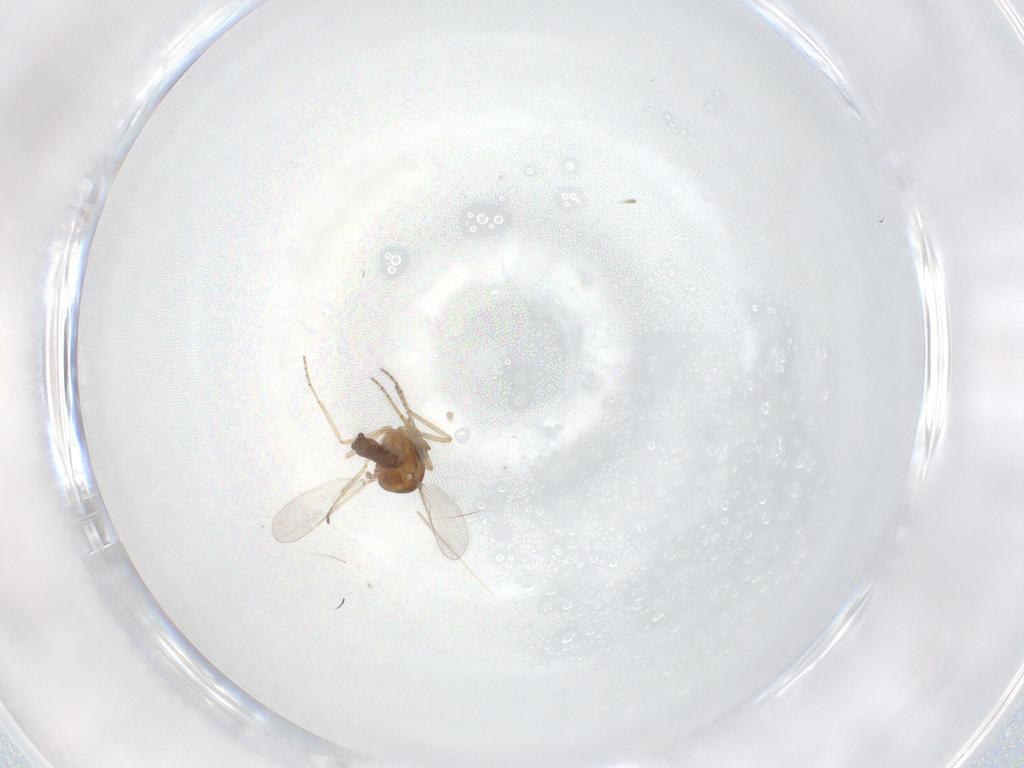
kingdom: Animalia
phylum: Arthropoda
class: Insecta
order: Diptera
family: Ceratopogonidae
